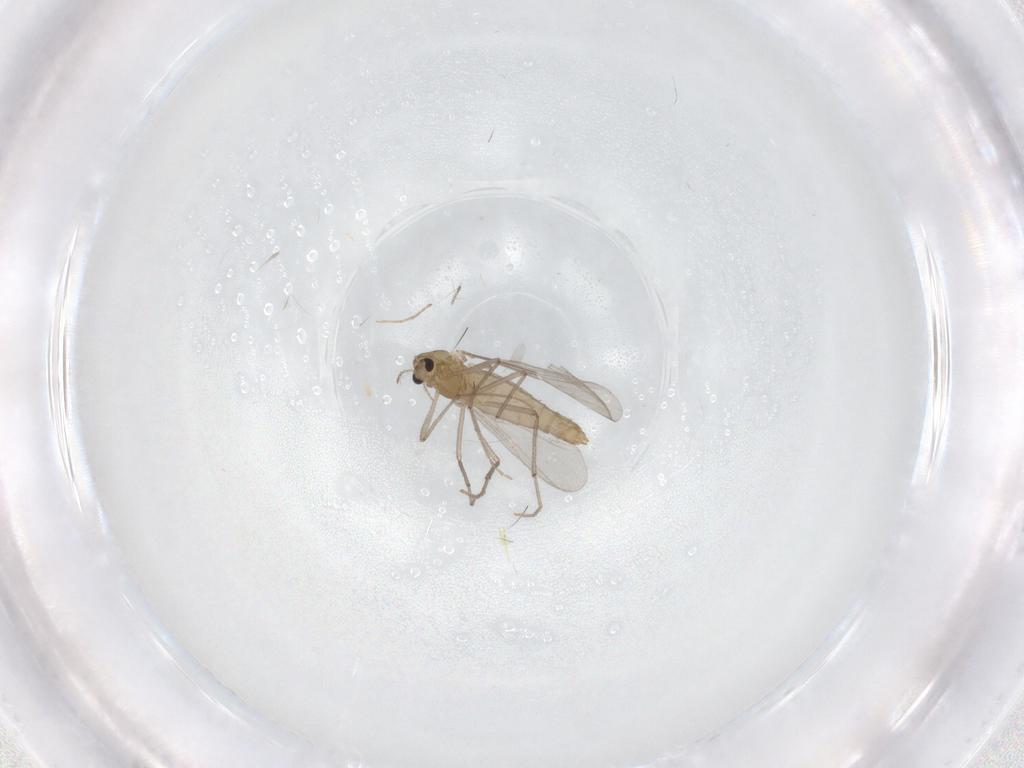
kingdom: Animalia
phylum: Arthropoda
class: Insecta
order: Diptera
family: Chironomidae
